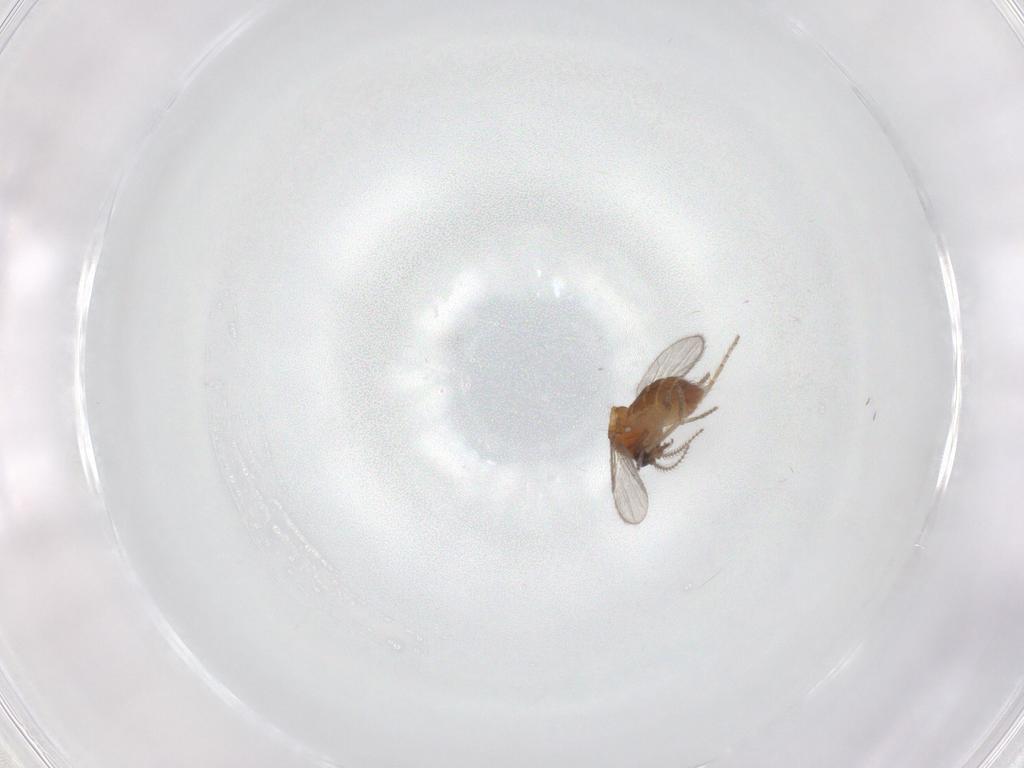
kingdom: Animalia
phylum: Arthropoda
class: Insecta
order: Diptera
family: Ceratopogonidae
